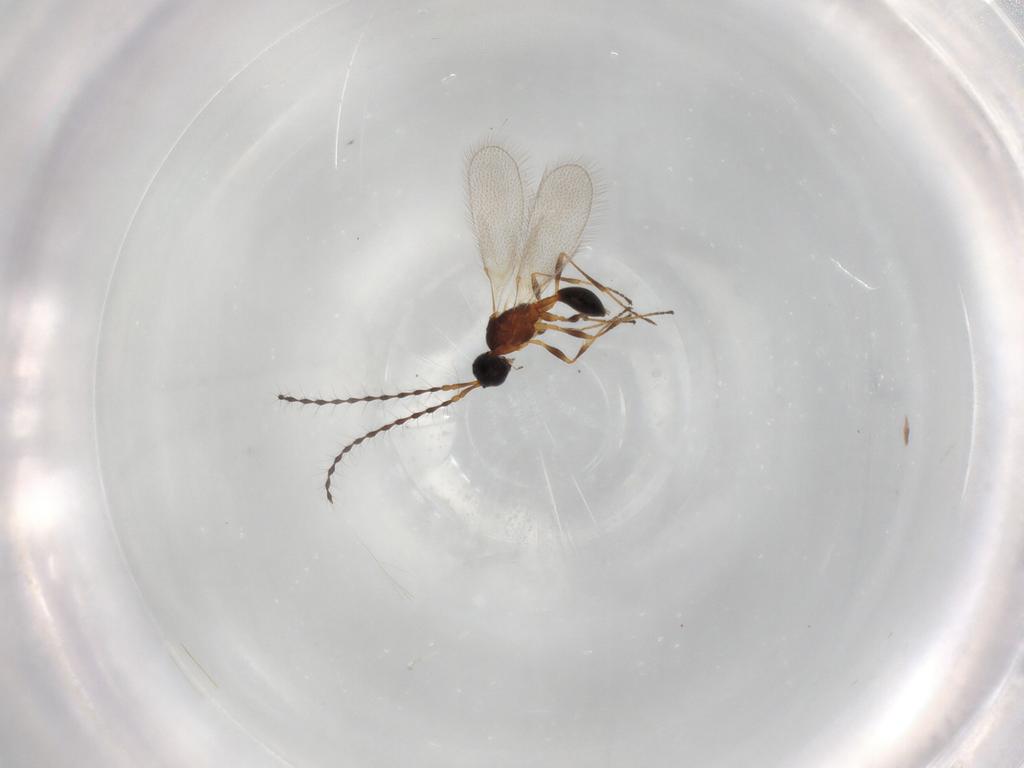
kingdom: Animalia
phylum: Arthropoda
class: Insecta
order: Hymenoptera
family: Diapriidae
